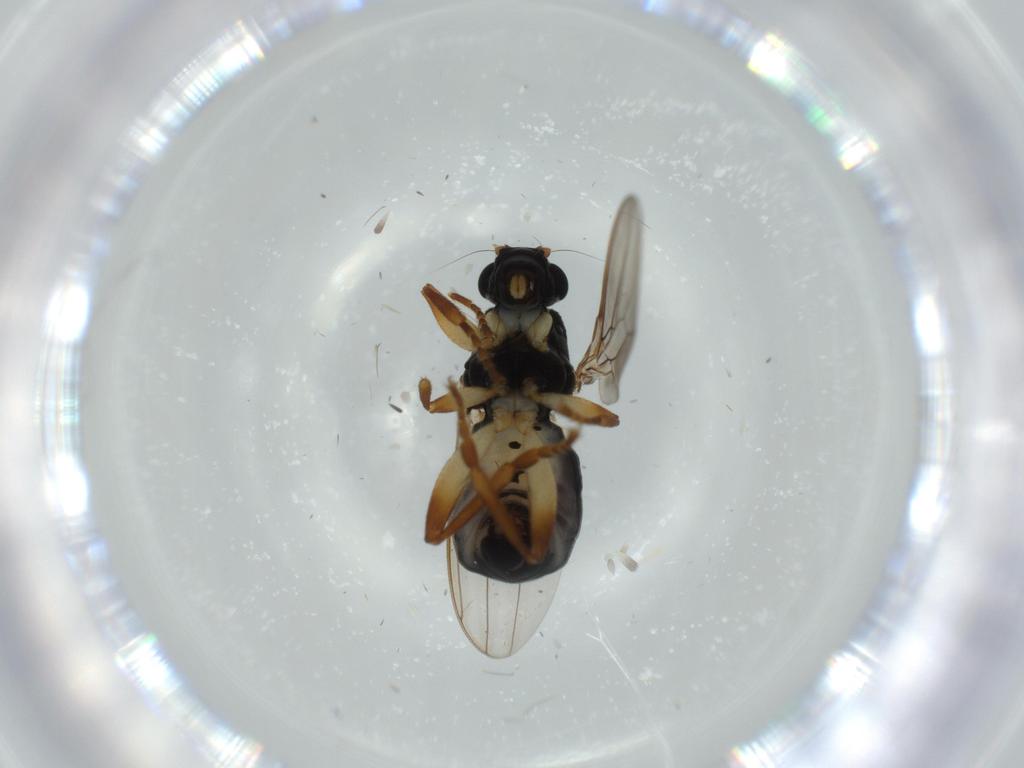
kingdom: Animalia
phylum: Arthropoda
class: Insecta
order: Diptera
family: Sphaeroceridae
